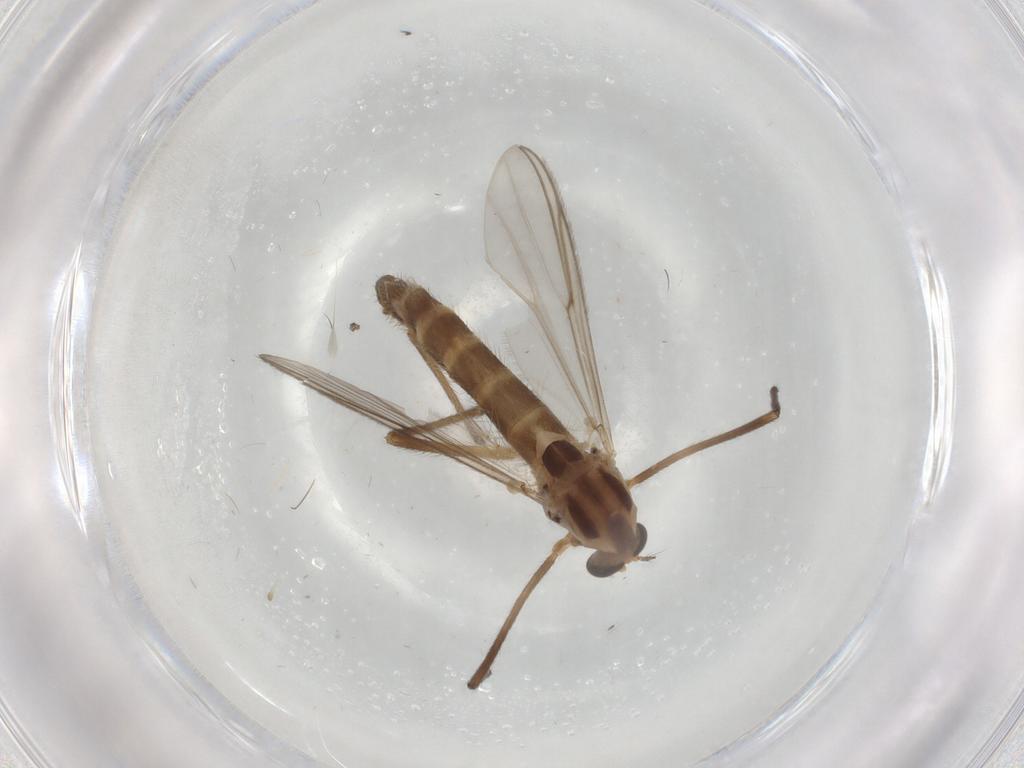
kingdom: Animalia
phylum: Arthropoda
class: Insecta
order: Diptera
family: Chironomidae
